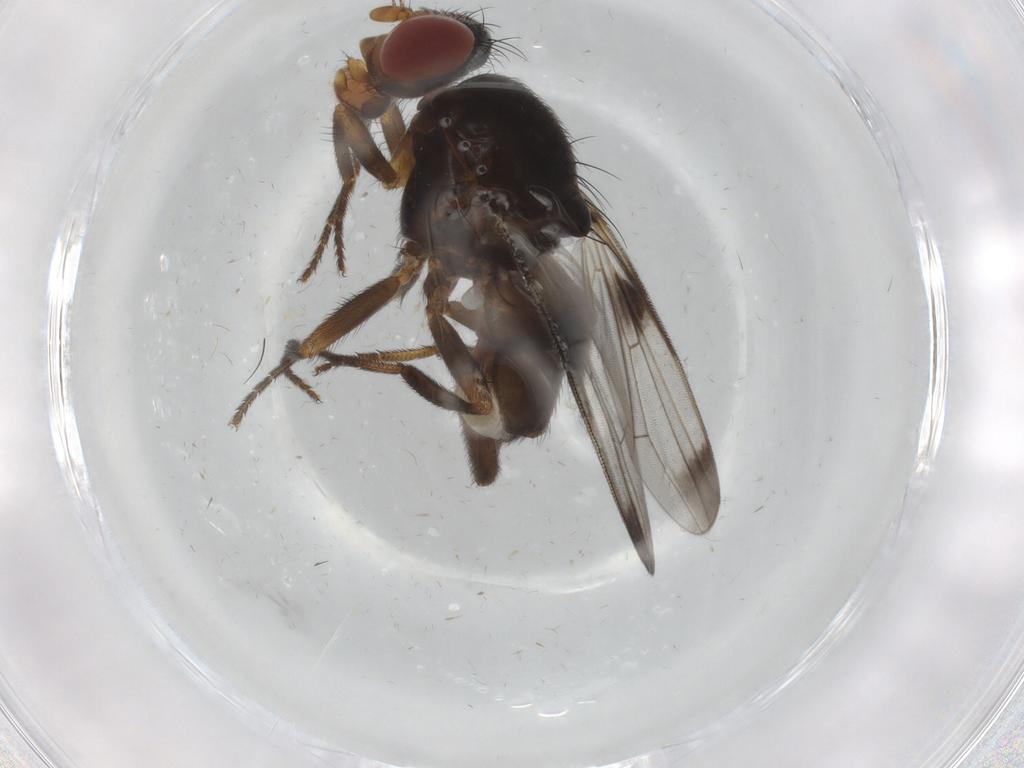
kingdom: Animalia
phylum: Arthropoda
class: Insecta
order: Diptera
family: Ulidiidae
